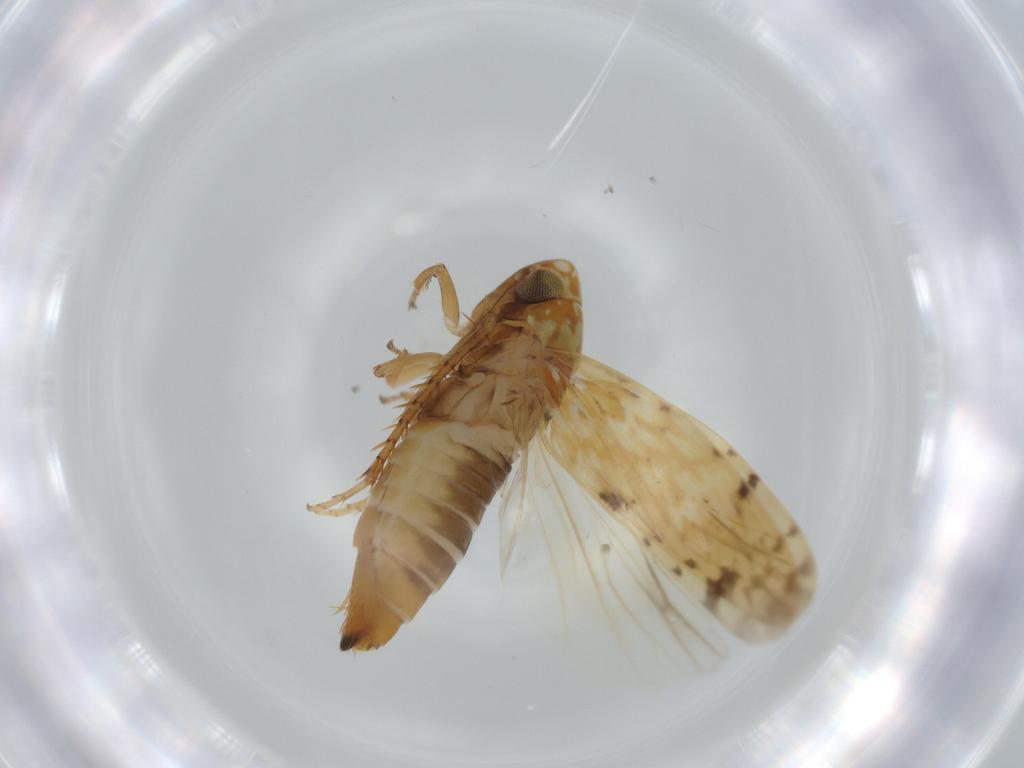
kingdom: Animalia
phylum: Arthropoda
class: Insecta
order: Hemiptera
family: Cicadellidae
